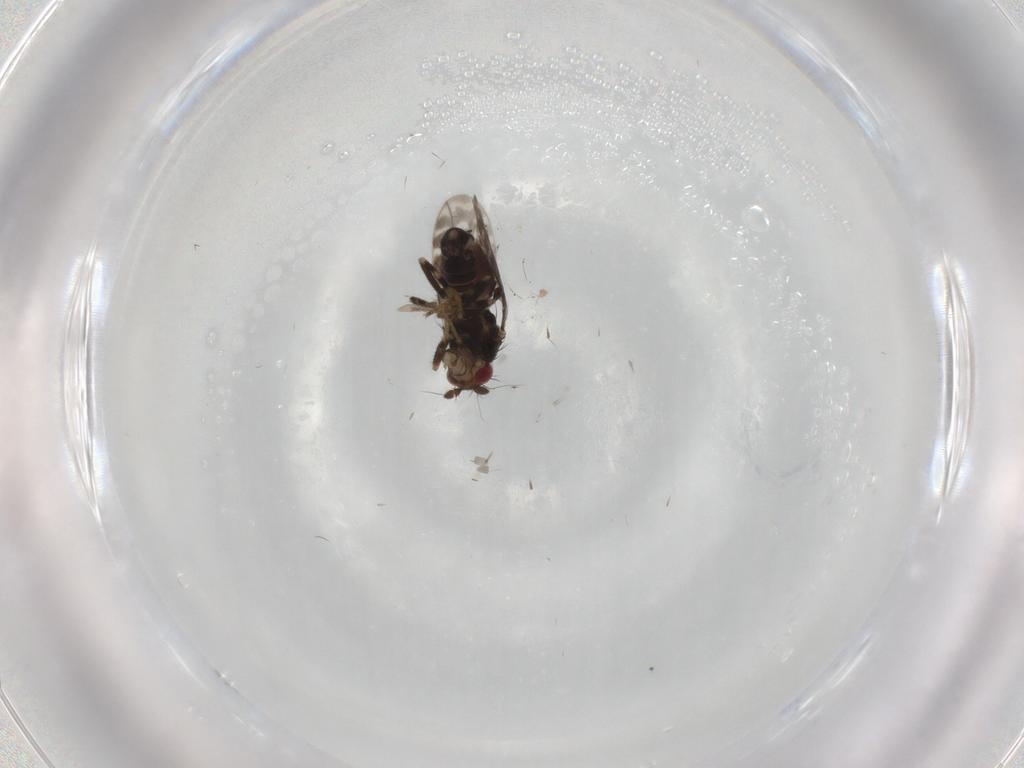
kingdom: Animalia
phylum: Arthropoda
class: Insecta
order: Diptera
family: Sphaeroceridae
